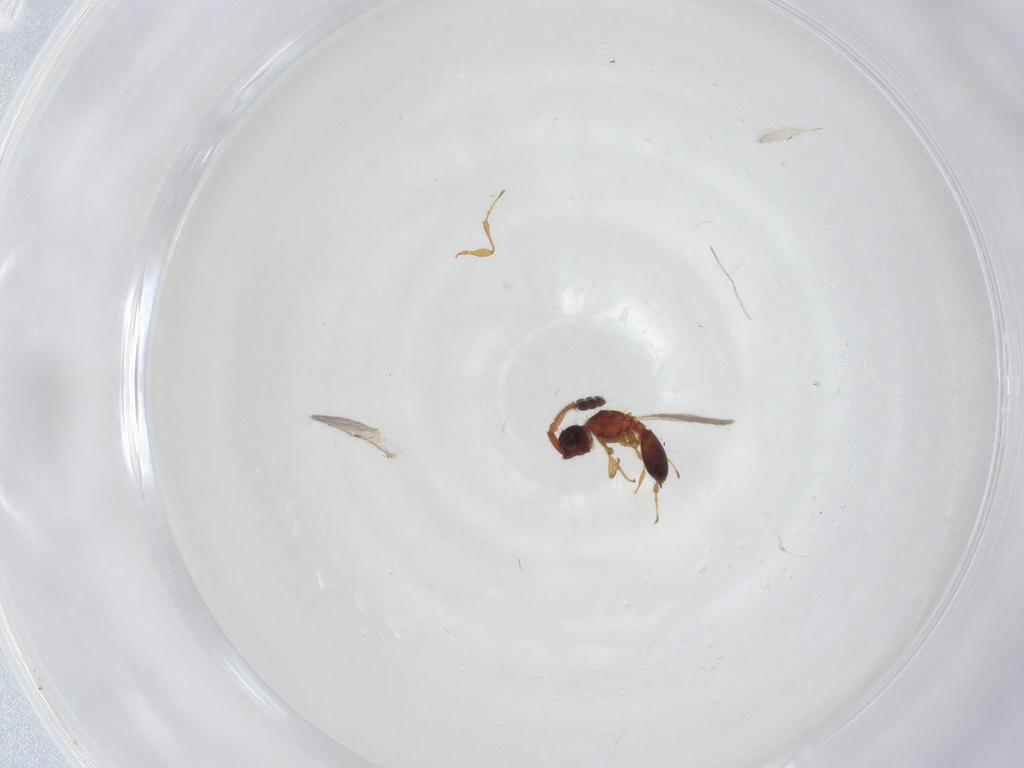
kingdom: Animalia
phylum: Arthropoda
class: Insecta
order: Hymenoptera
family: Diapriidae
